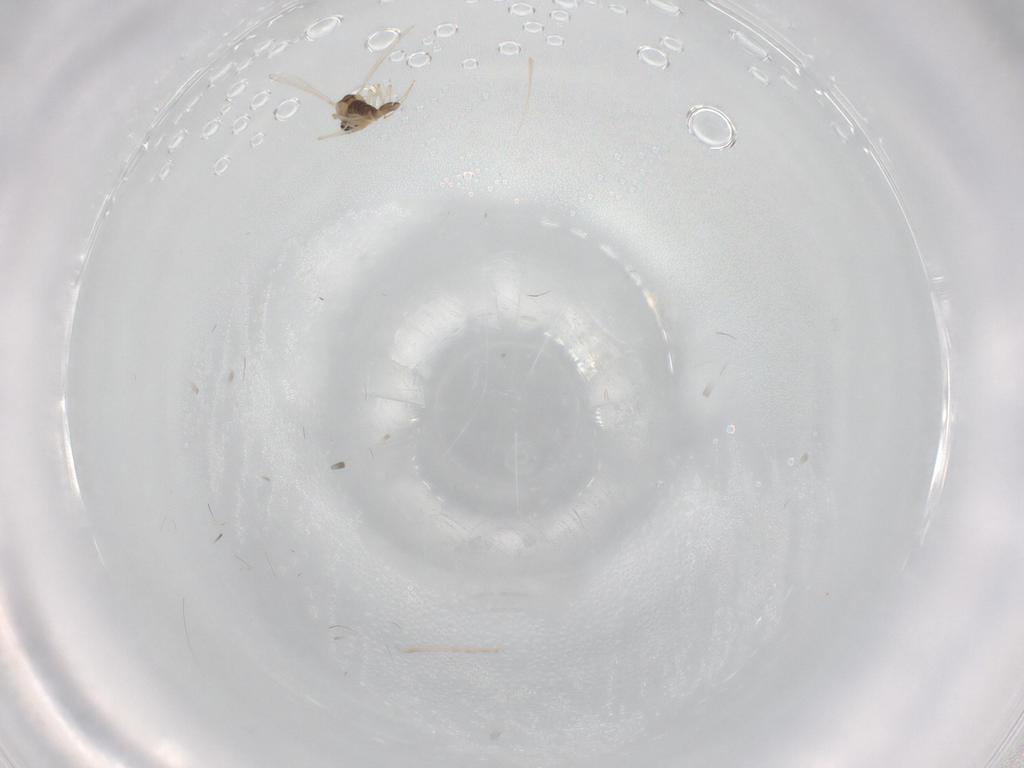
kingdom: Animalia
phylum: Arthropoda
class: Insecta
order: Diptera
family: Chironomidae
